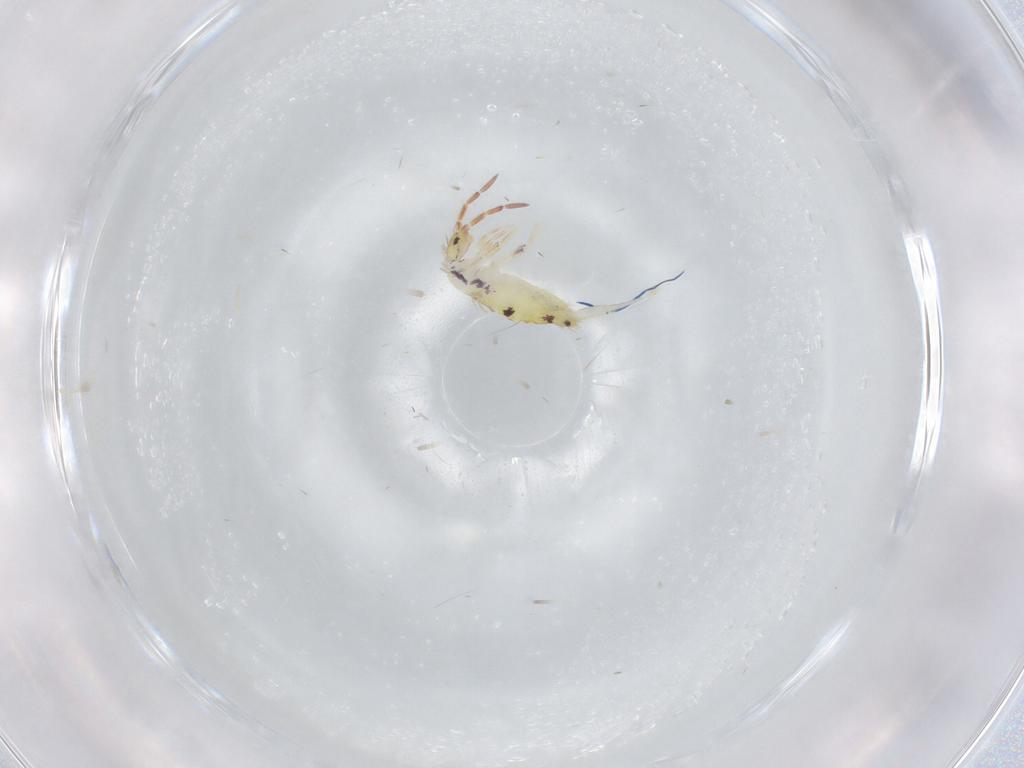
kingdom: Animalia
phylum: Arthropoda
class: Collembola
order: Entomobryomorpha
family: Entomobryidae
